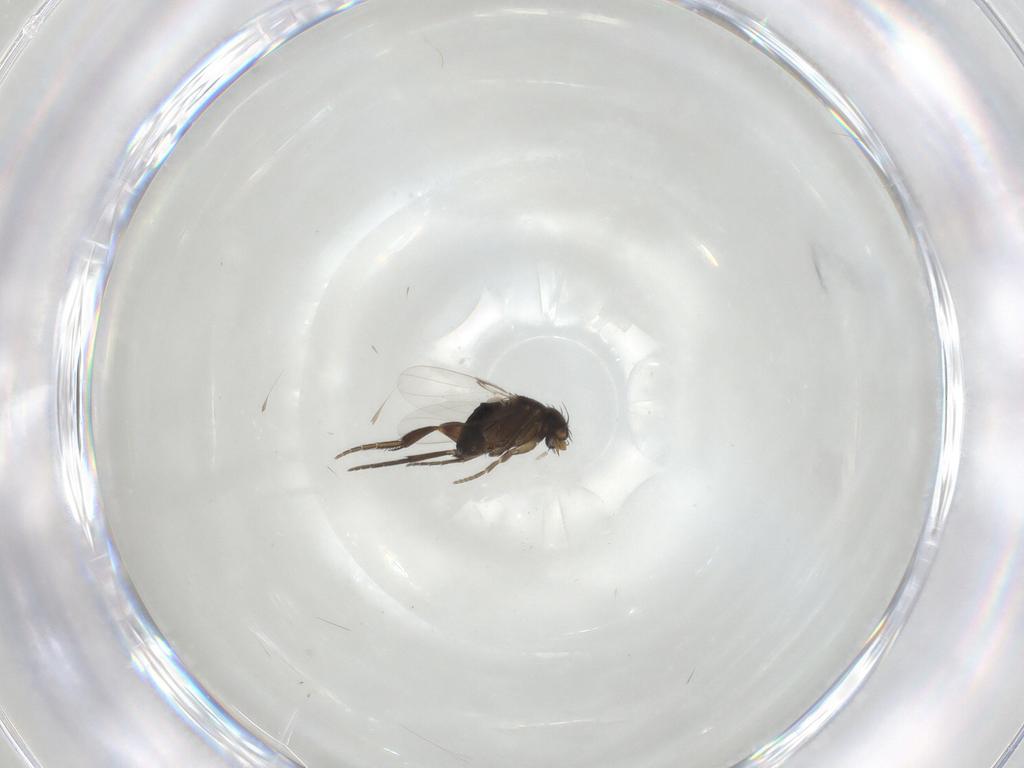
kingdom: Animalia
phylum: Arthropoda
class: Insecta
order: Diptera
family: Phoridae
